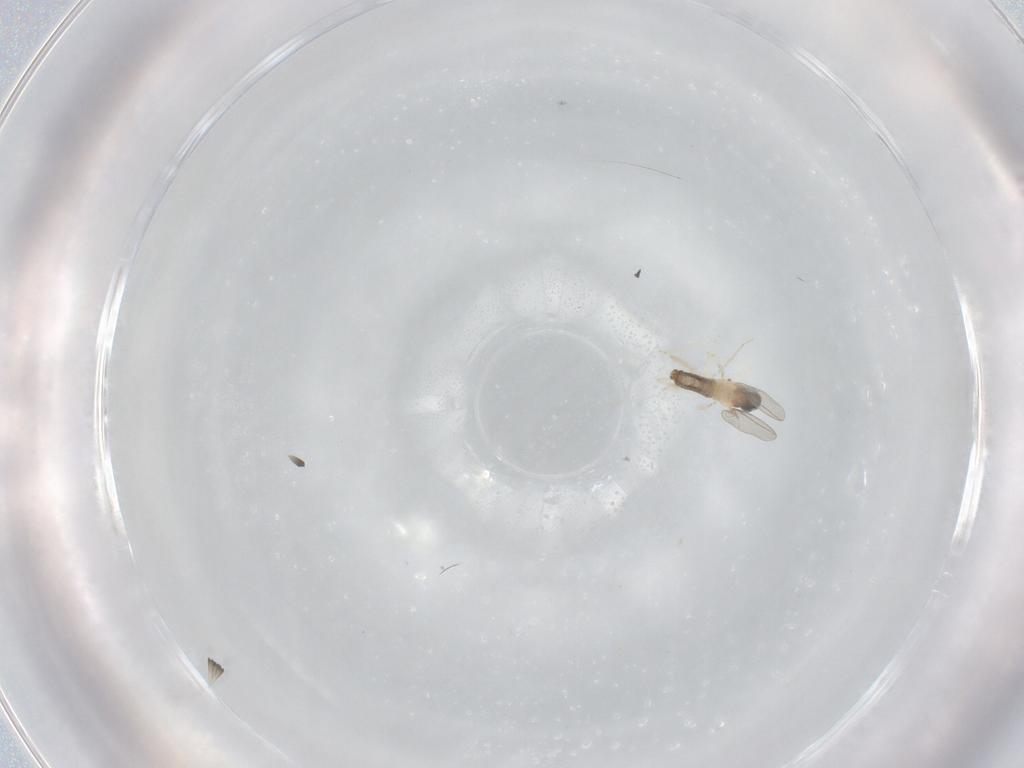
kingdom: Animalia
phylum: Arthropoda
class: Insecta
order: Diptera
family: Cecidomyiidae
